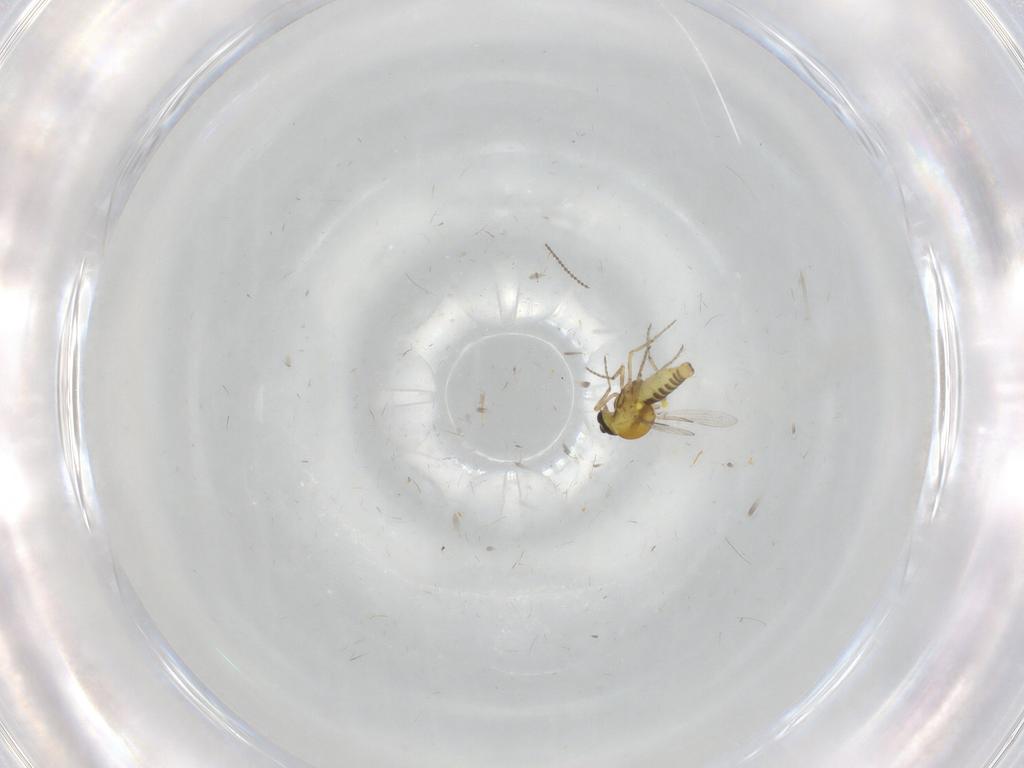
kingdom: Animalia
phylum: Arthropoda
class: Insecta
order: Diptera
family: Ceratopogonidae
